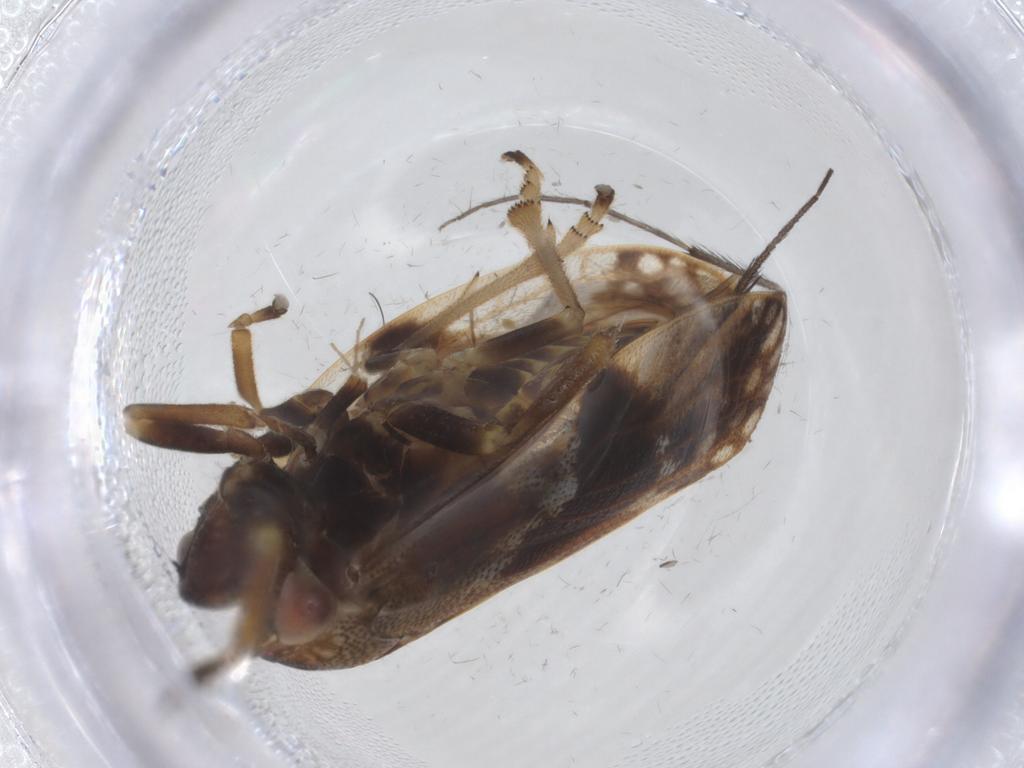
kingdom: Animalia
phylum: Arthropoda
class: Insecta
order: Hemiptera
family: Aphrophoridae
